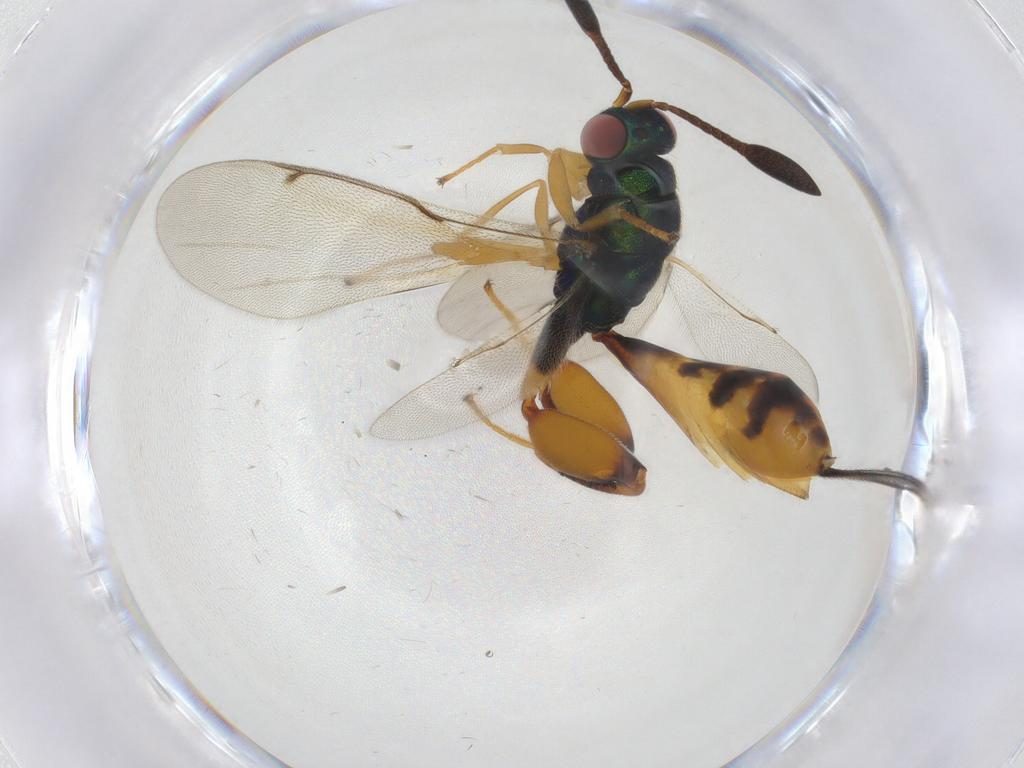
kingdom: Animalia
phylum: Arthropoda
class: Insecta
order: Hymenoptera
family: Torymidae
